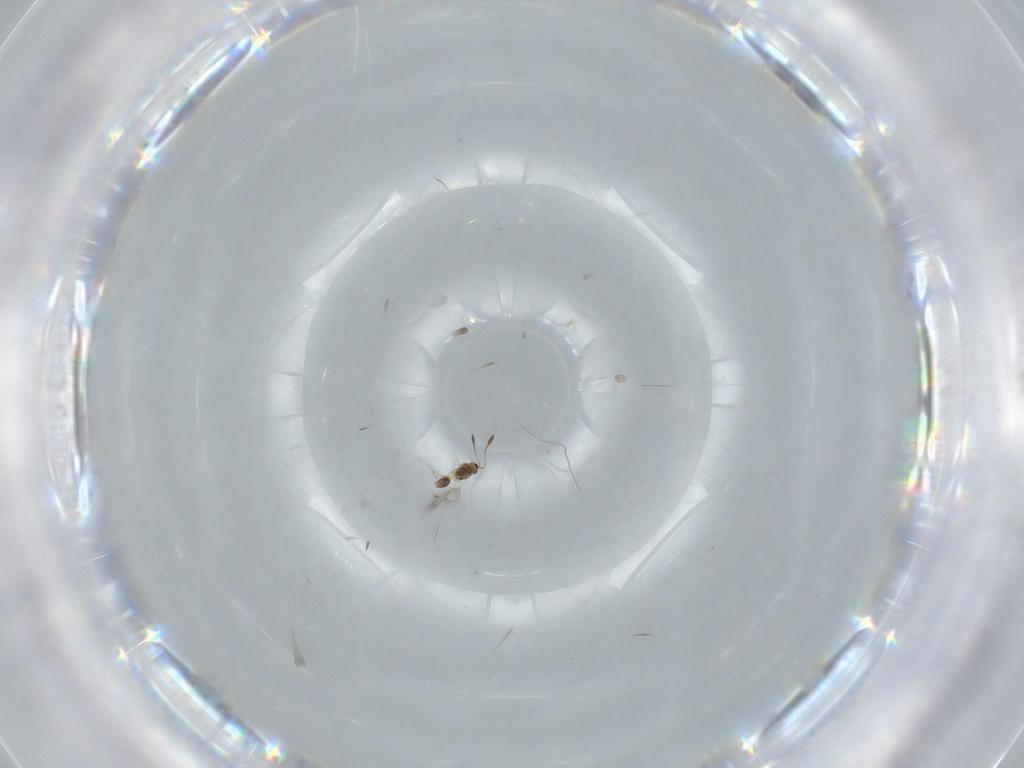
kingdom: Animalia
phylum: Arthropoda
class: Insecta
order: Hymenoptera
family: Mymarommatidae
